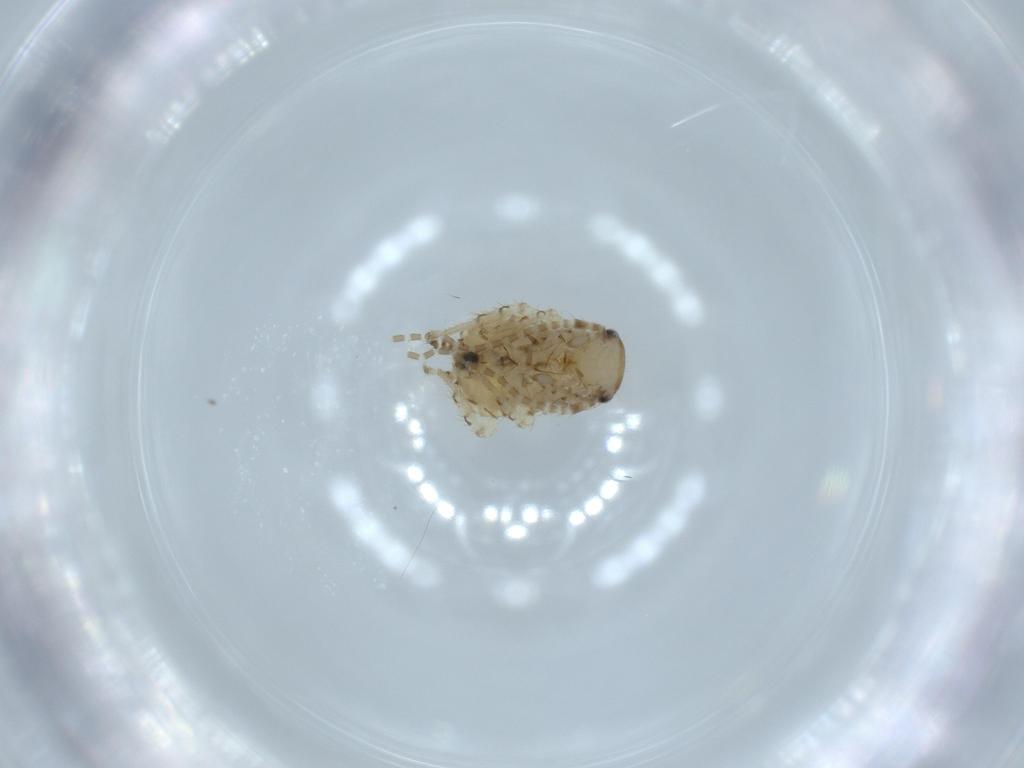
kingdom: Animalia
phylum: Arthropoda
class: Insecta
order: Blattodea
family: Ectobiidae
